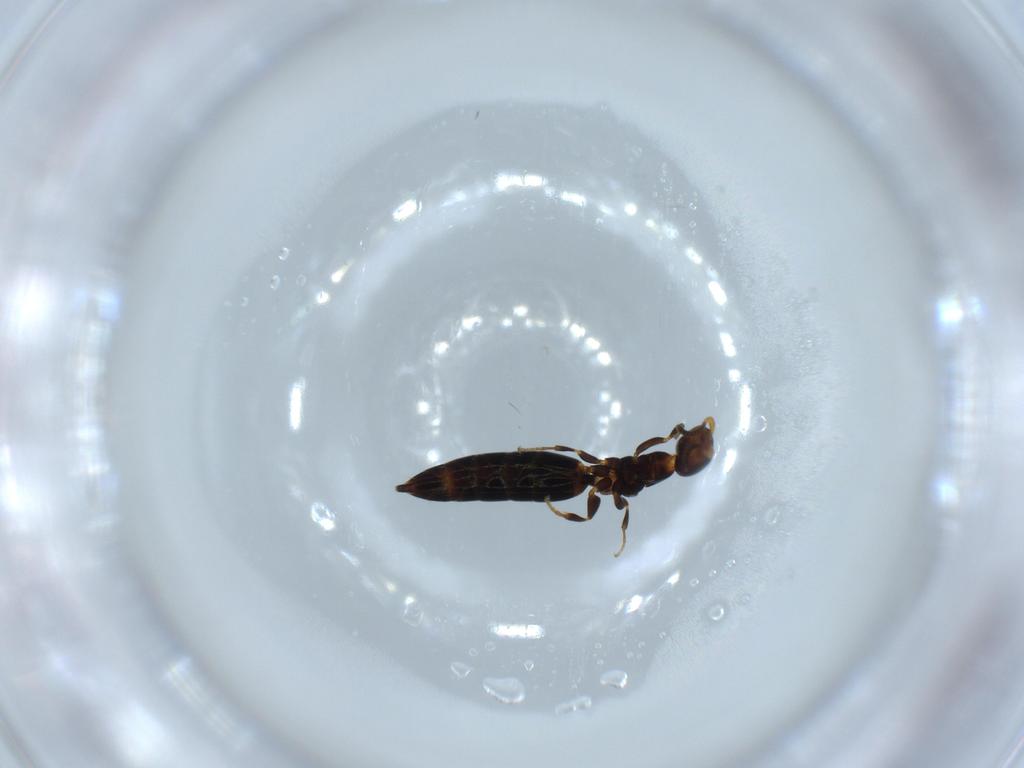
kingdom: Animalia
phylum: Arthropoda
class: Insecta
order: Hymenoptera
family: Bethylidae
